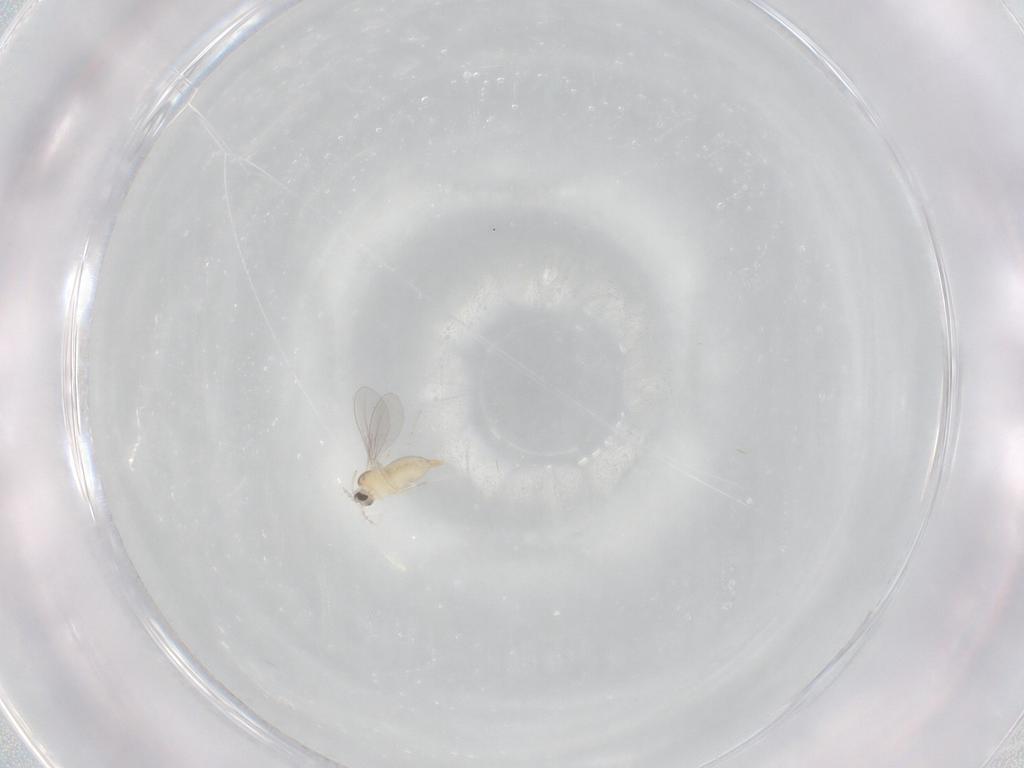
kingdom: Animalia
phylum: Arthropoda
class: Insecta
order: Diptera
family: Cecidomyiidae
